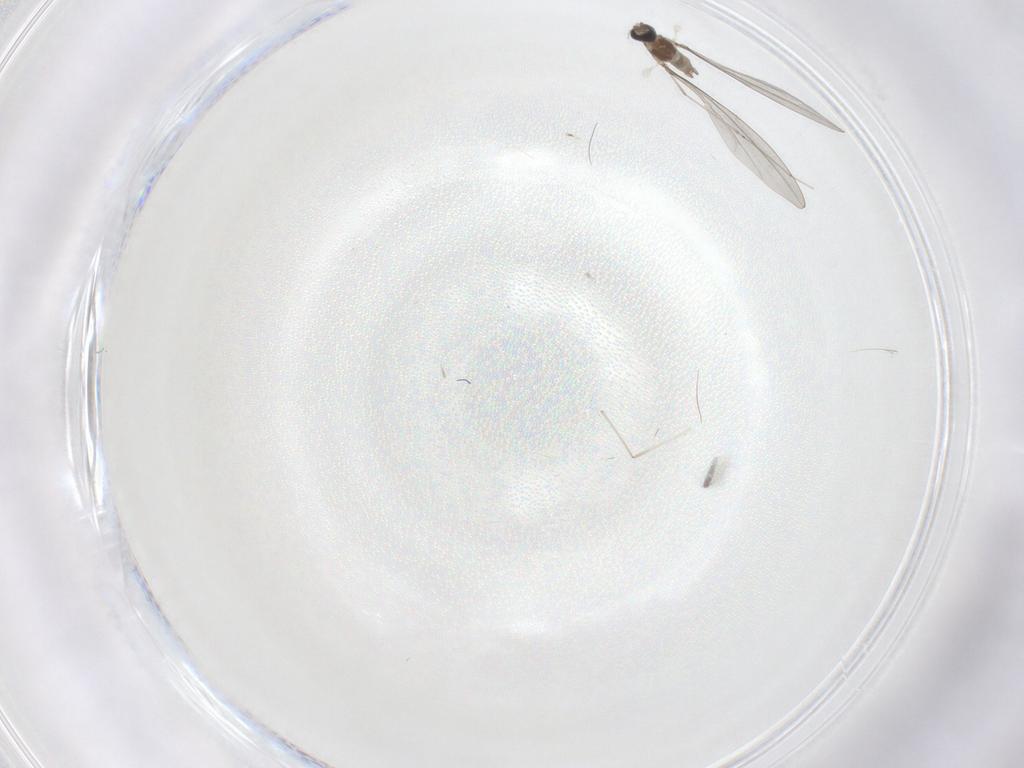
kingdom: Animalia
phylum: Arthropoda
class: Insecta
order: Diptera
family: Cecidomyiidae
